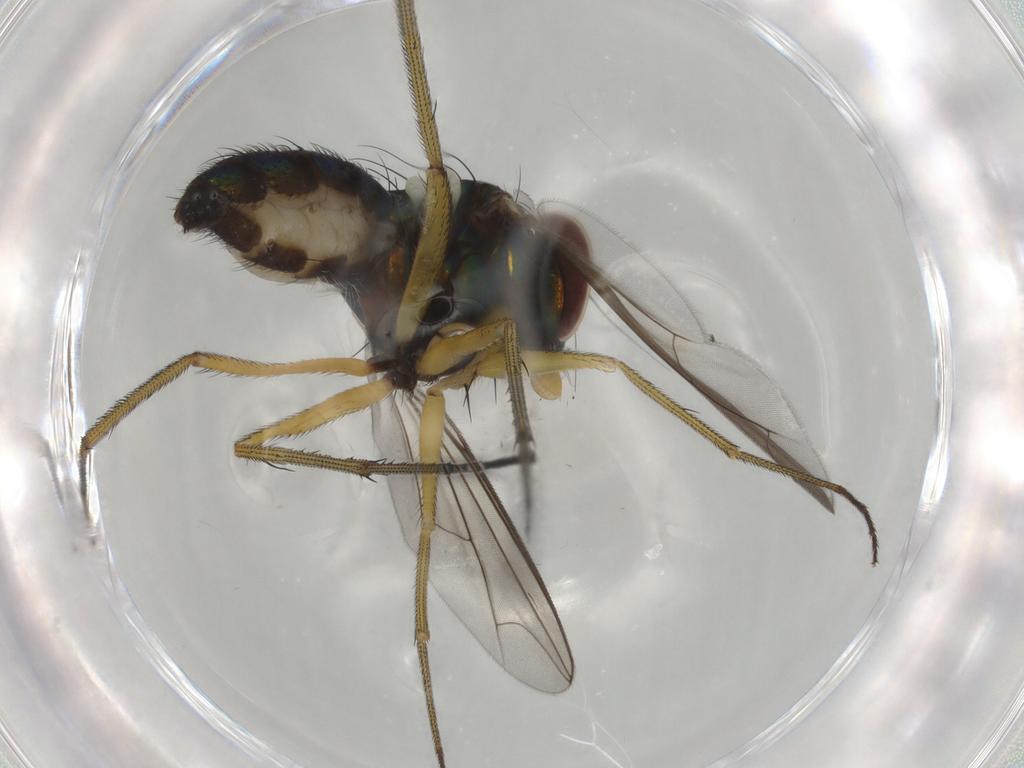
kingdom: Animalia
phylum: Arthropoda
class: Insecta
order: Diptera
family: Dolichopodidae
